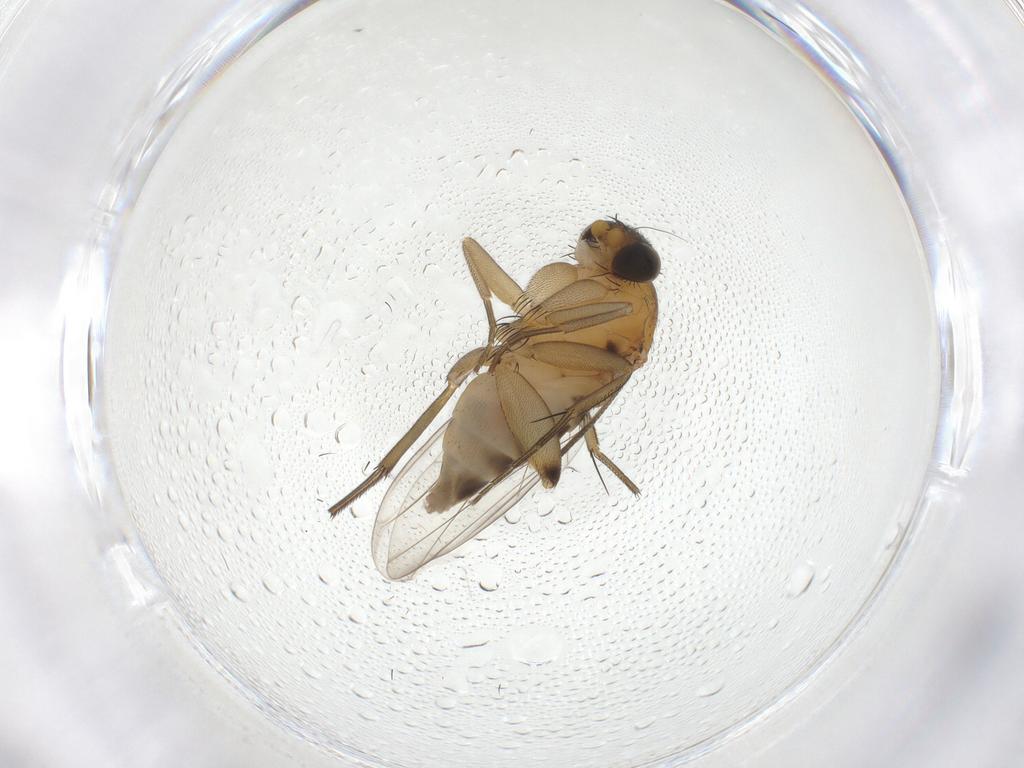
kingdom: Animalia
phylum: Arthropoda
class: Insecta
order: Diptera
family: Phoridae
